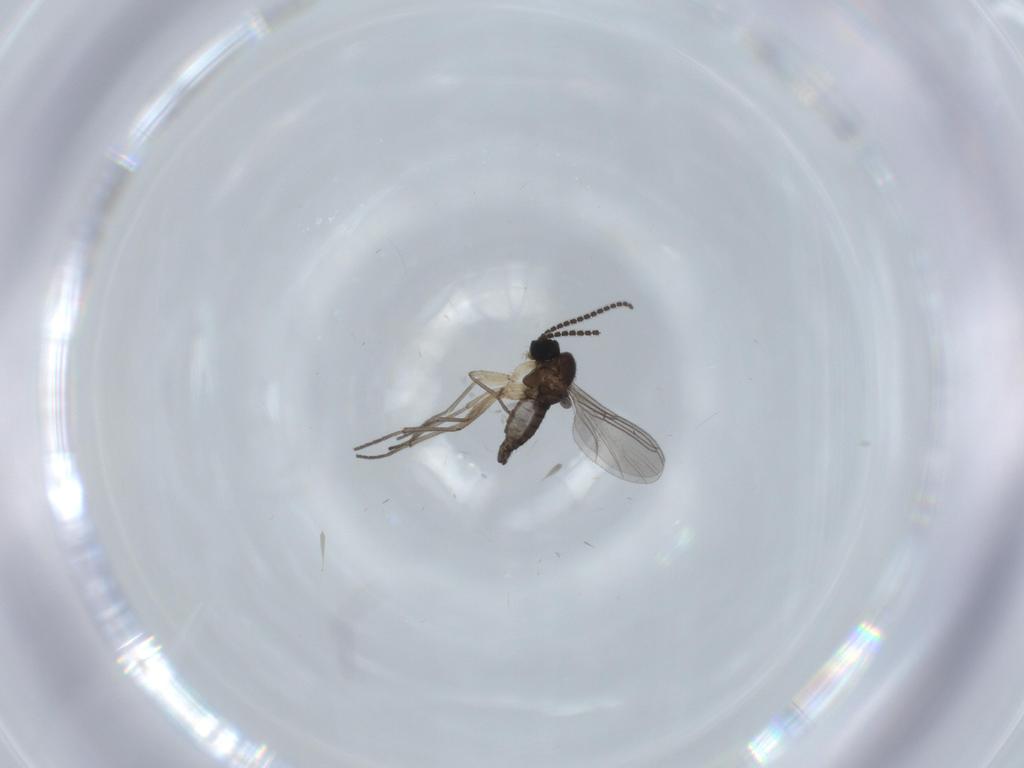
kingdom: Animalia
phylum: Arthropoda
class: Insecta
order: Diptera
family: Sciaridae
